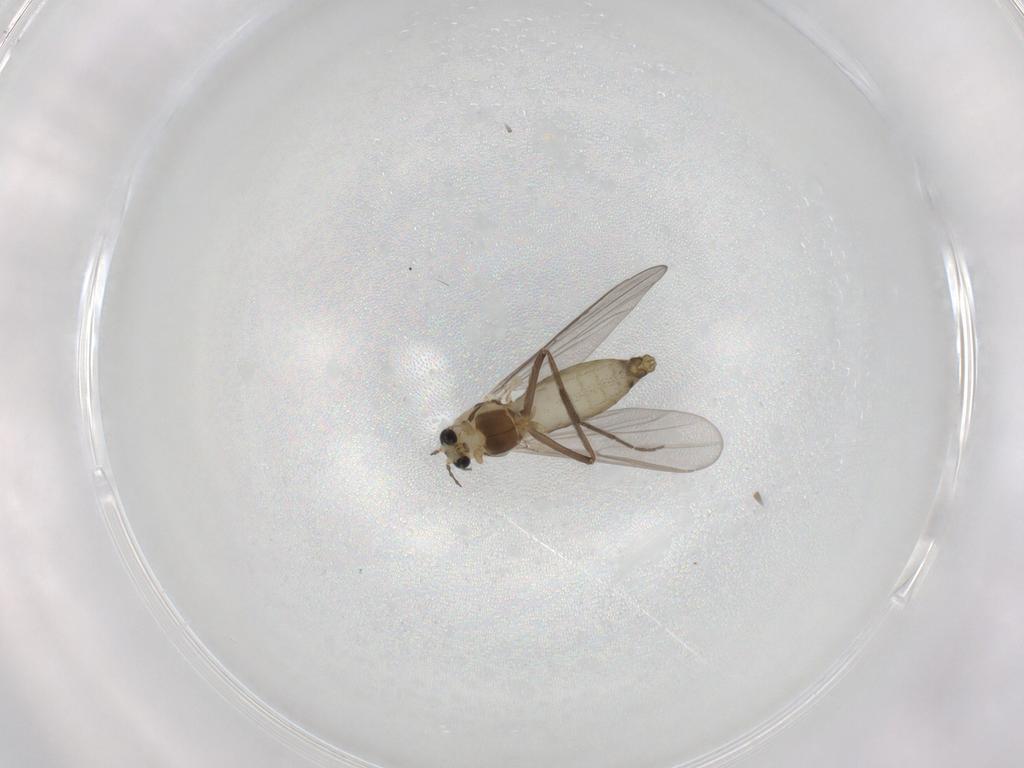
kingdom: Animalia
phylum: Arthropoda
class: Insecta
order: Diptera
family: Chironomidae
